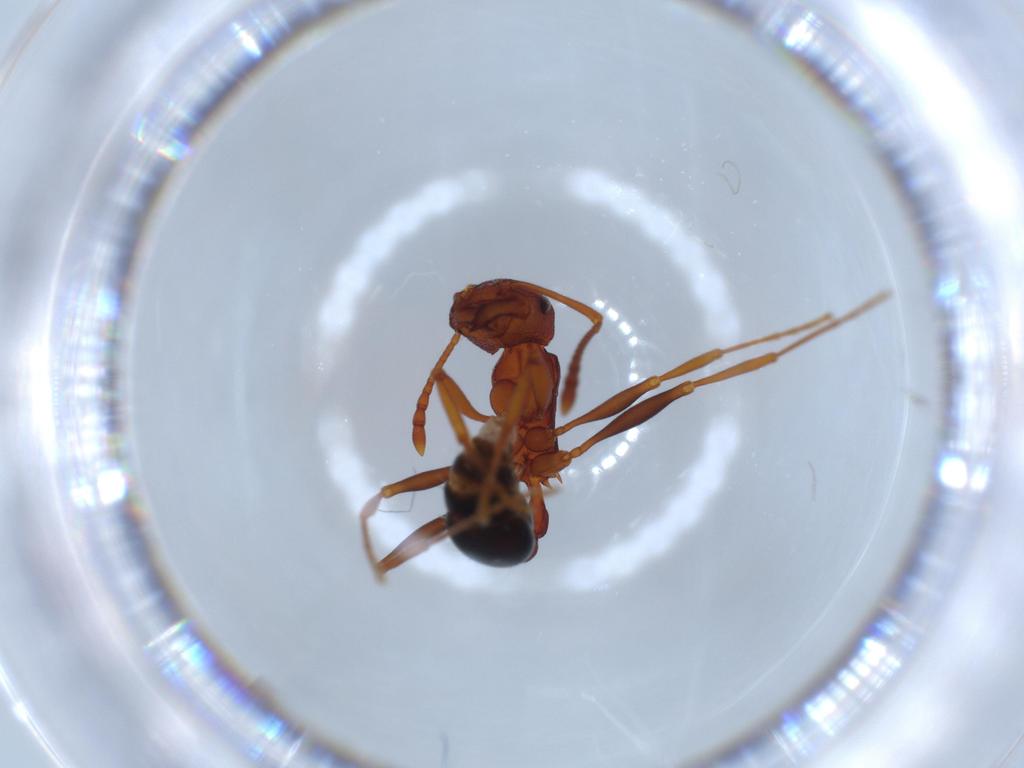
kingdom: Animalia
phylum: Arthropoda
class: Insecta
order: Hymenoptera
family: Formicidae
